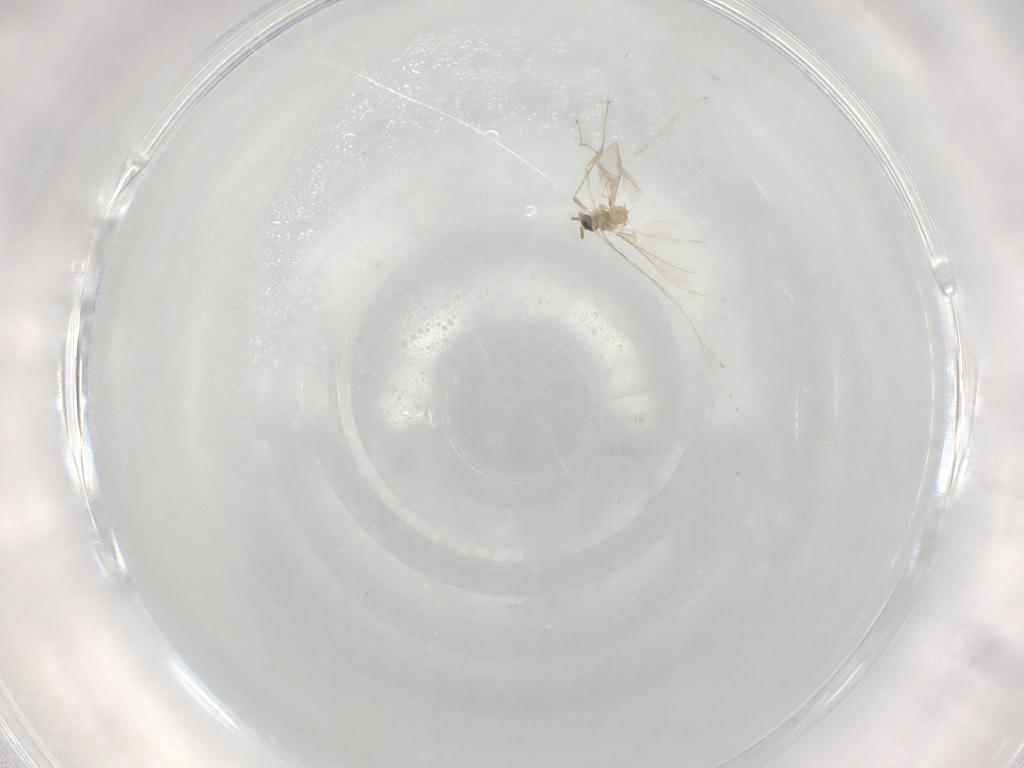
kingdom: Animalia
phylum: Arthropoda
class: Insecta
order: Diptera
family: Cecidomyiidae
